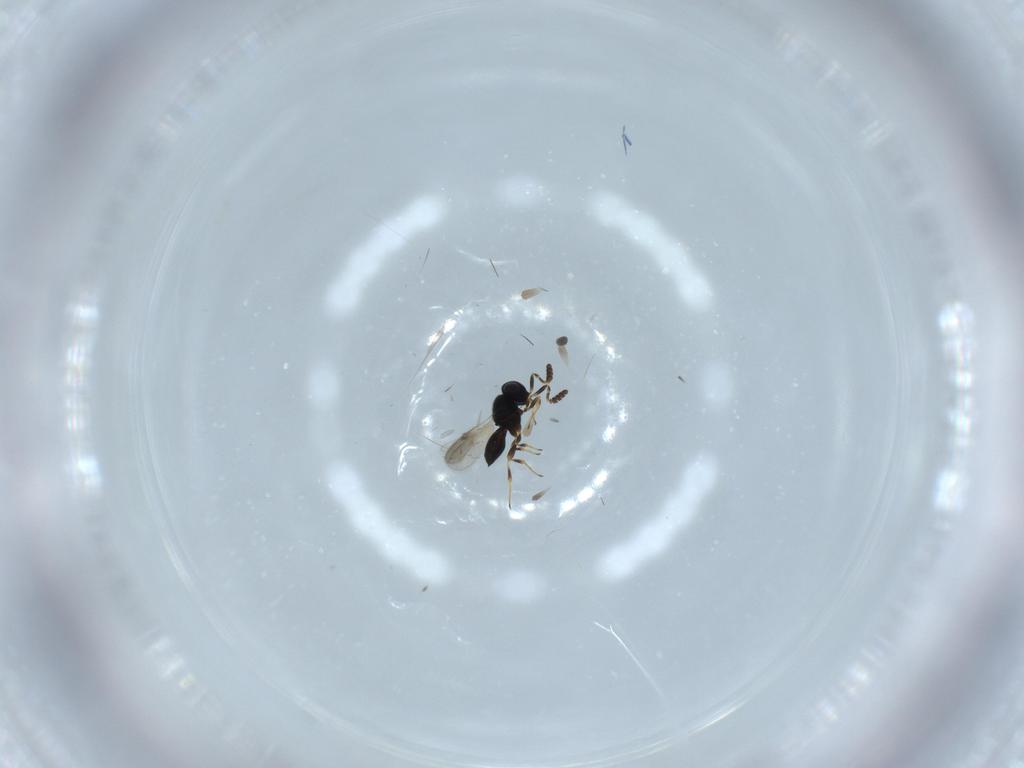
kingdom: Animalia
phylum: Arthropoda
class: Insecta
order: Hymenoptera
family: Scelionidae
